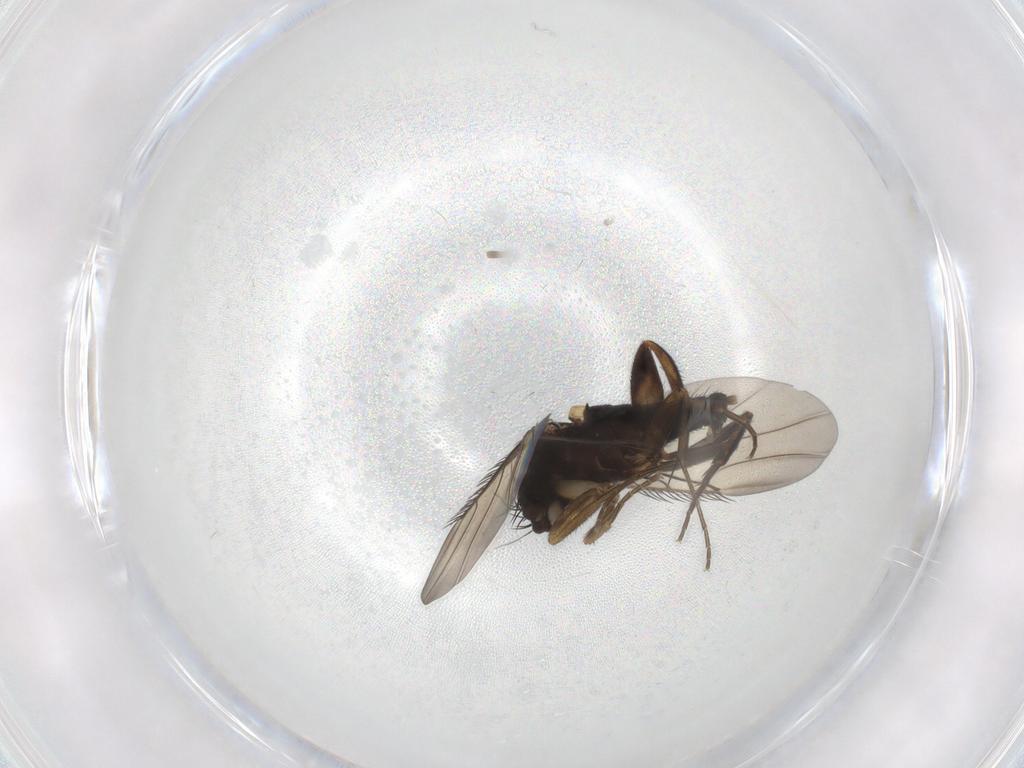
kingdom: Animalia
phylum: Arthropoda
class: Insecta
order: Diptera
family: Phoridae
